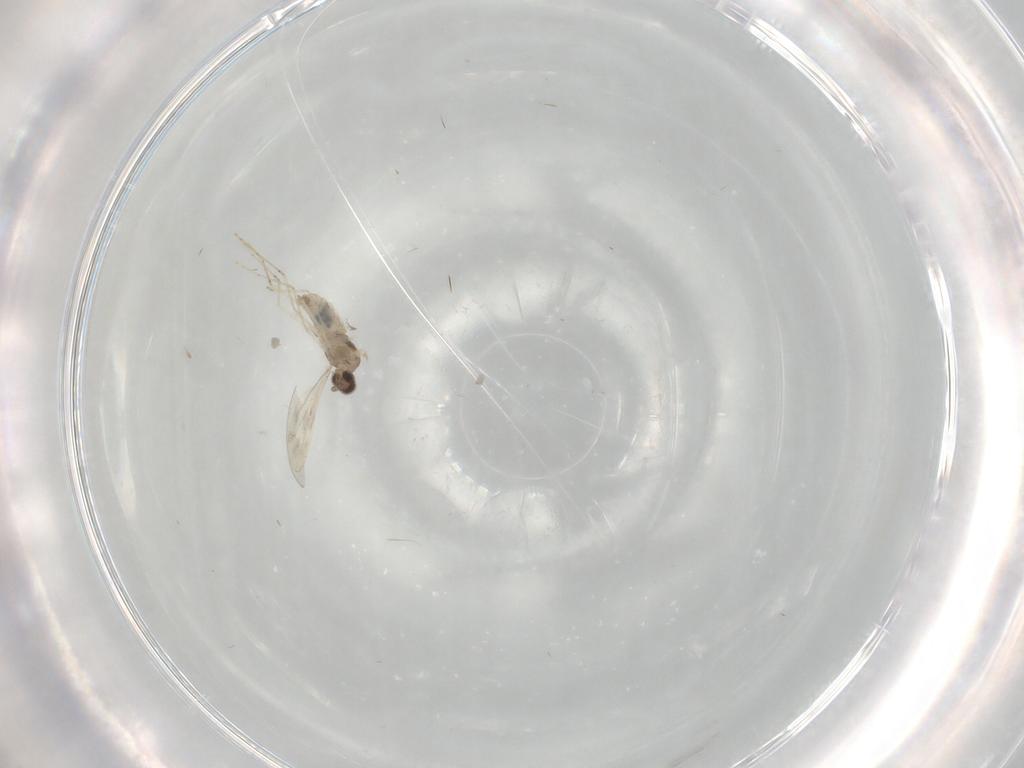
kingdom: Animalia
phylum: Arthropoda
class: Insecta
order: Diptera
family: Cecidomyiidae
